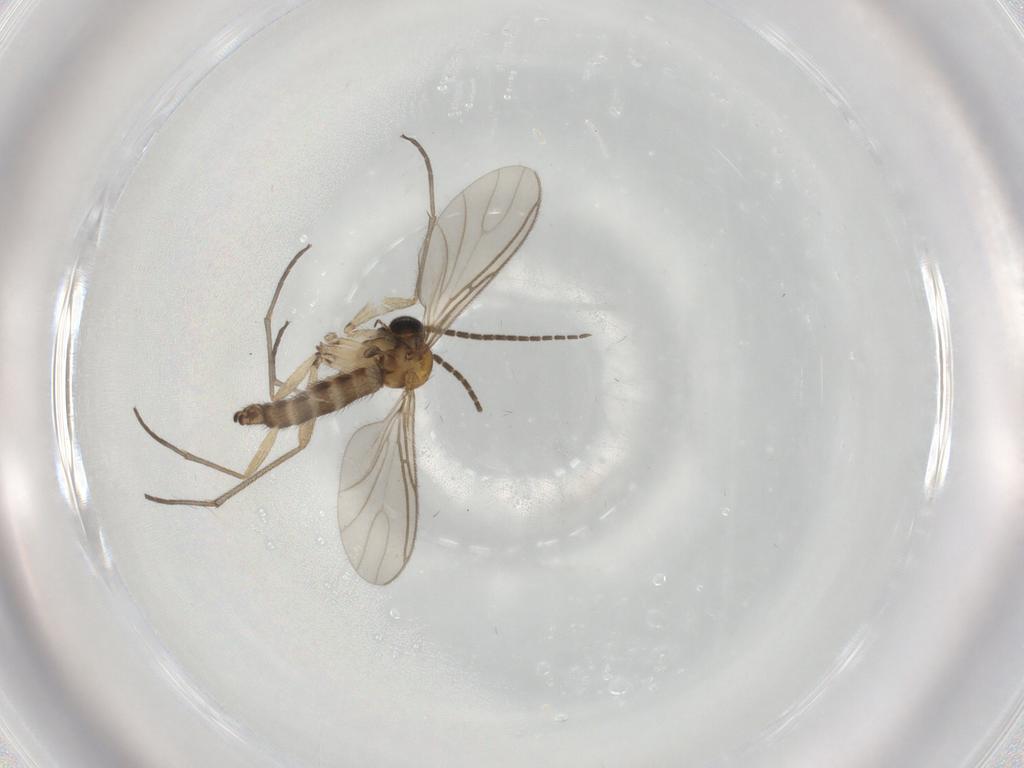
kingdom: Animalia
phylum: Arthropoda
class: Insecta
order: Diptera
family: Sciaridae
